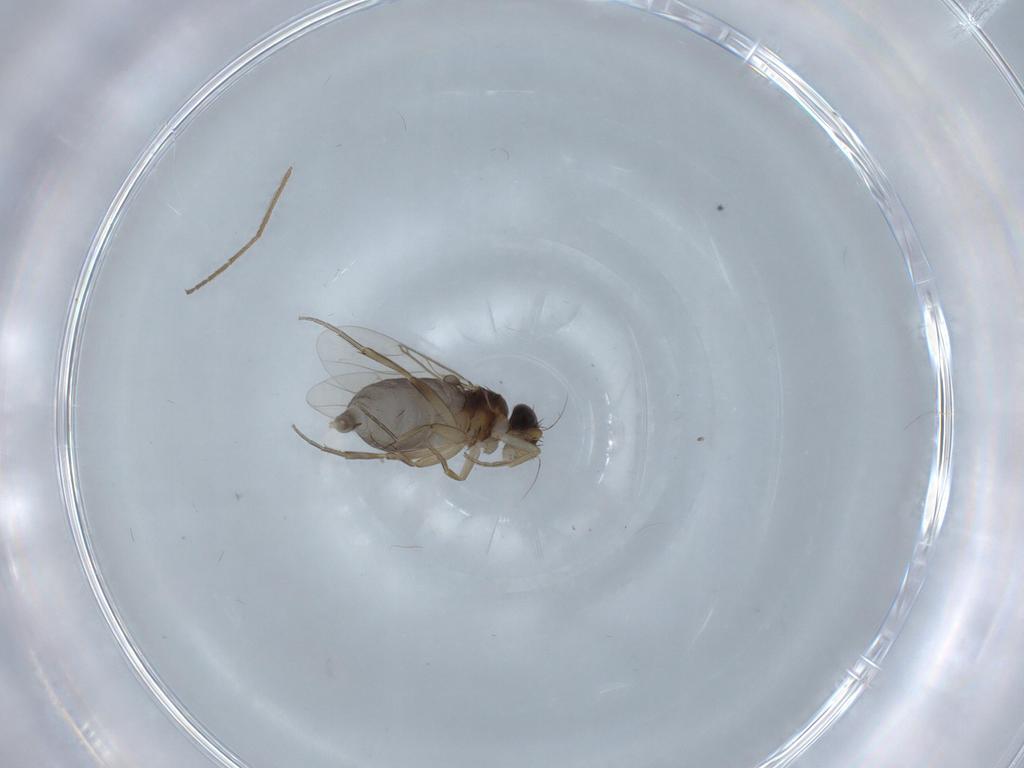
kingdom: Animalia
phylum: Arthropoda
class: Insecta
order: Diptera
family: Phoridae
